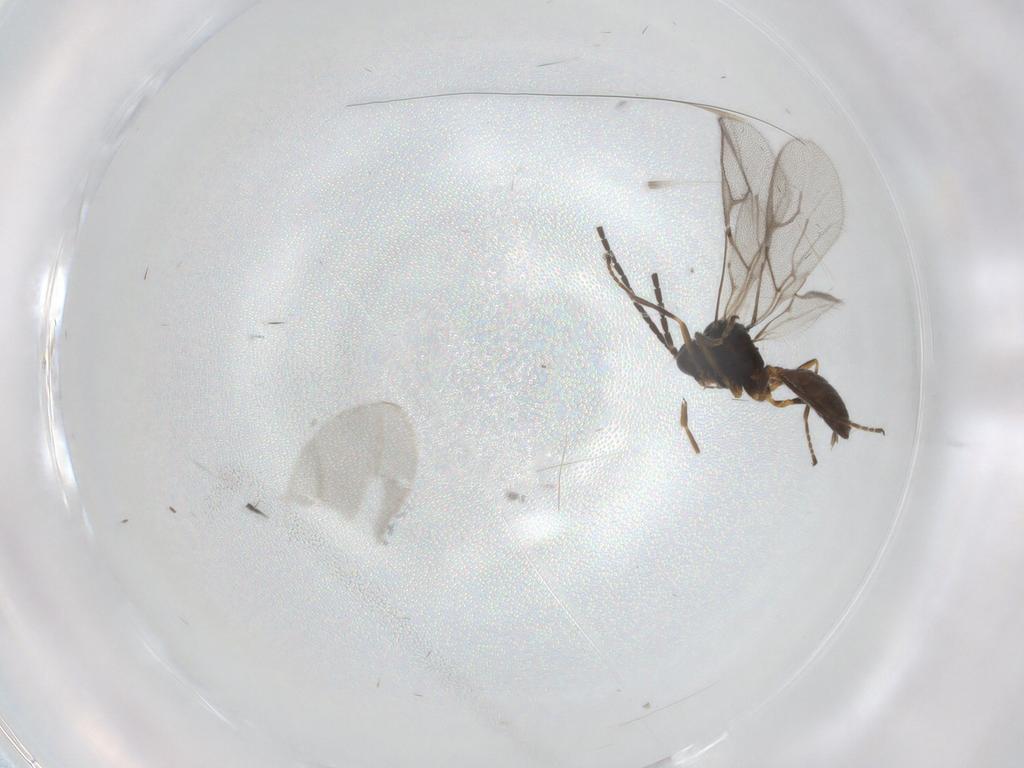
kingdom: Animalia
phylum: Arthropoda
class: Insecta
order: Hymenoptera
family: Braconidae
